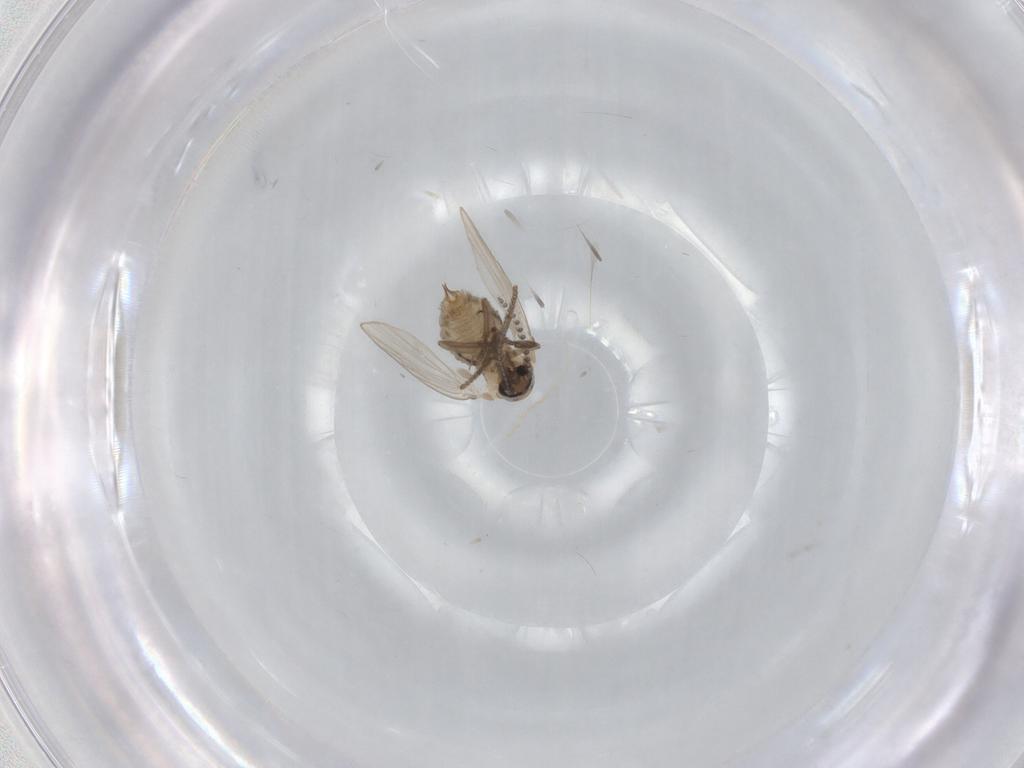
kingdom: Animalia
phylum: Arthropoda
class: Insecta
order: Diptera
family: Psychodidae
